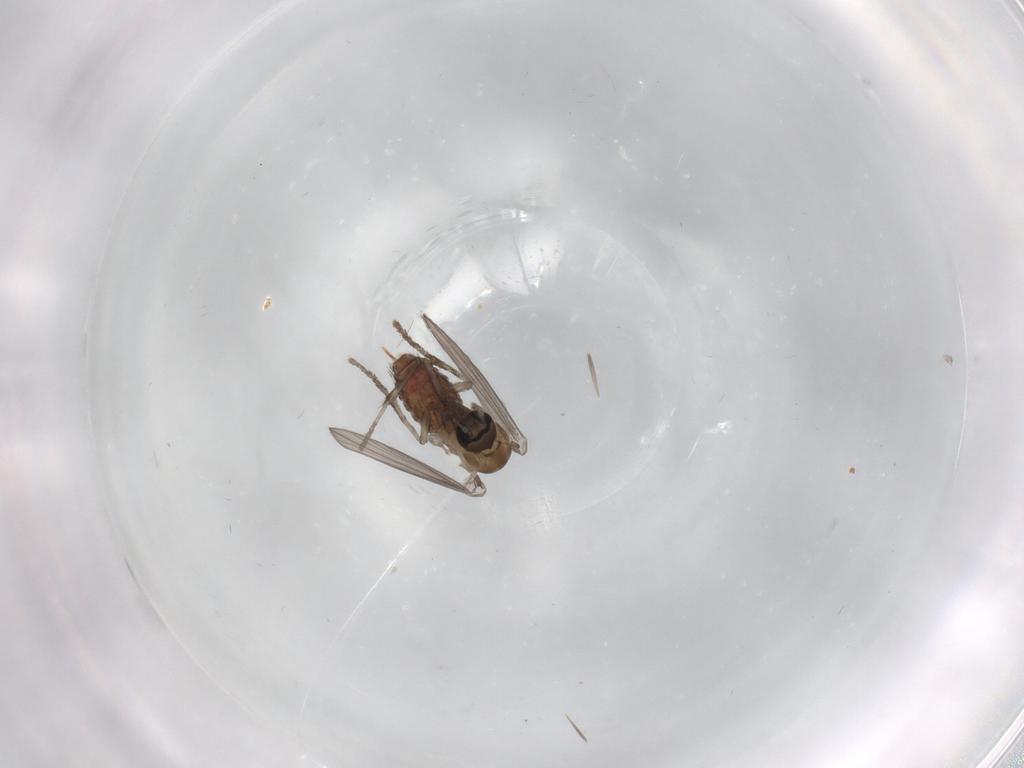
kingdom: Animalia
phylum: Arthropoda
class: Insecta
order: Diptera
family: Psychodidae
